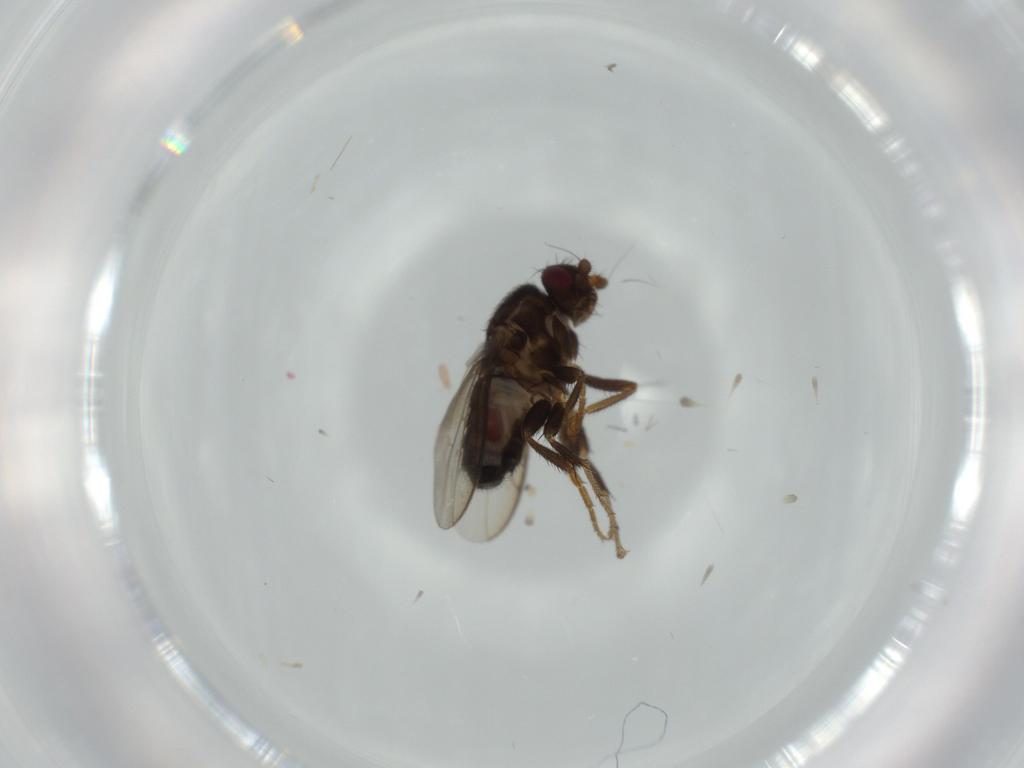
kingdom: Animalia
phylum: Arthropoda
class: Insecta
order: Diptera
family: Sphaeroceridae
